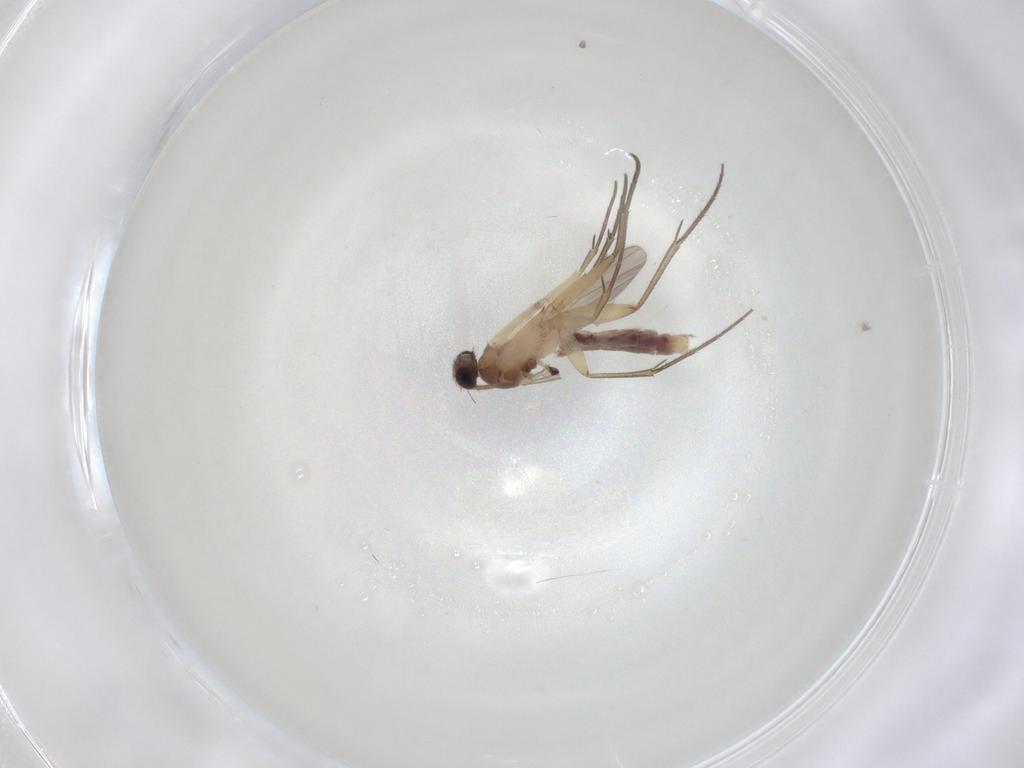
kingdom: Animalia
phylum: Arthropoda
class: Insecta
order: Diptera
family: Mycetophilidae
